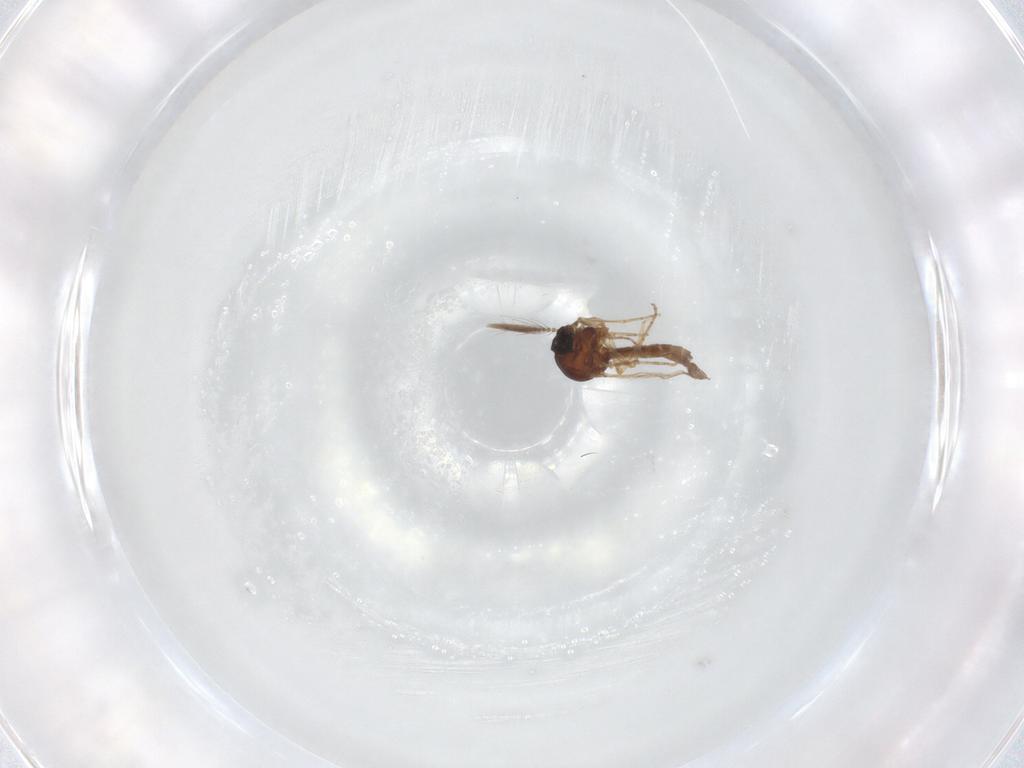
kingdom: Animalia
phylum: Arthropoda
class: Insecta
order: Diptera
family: Ceratopogonidae
